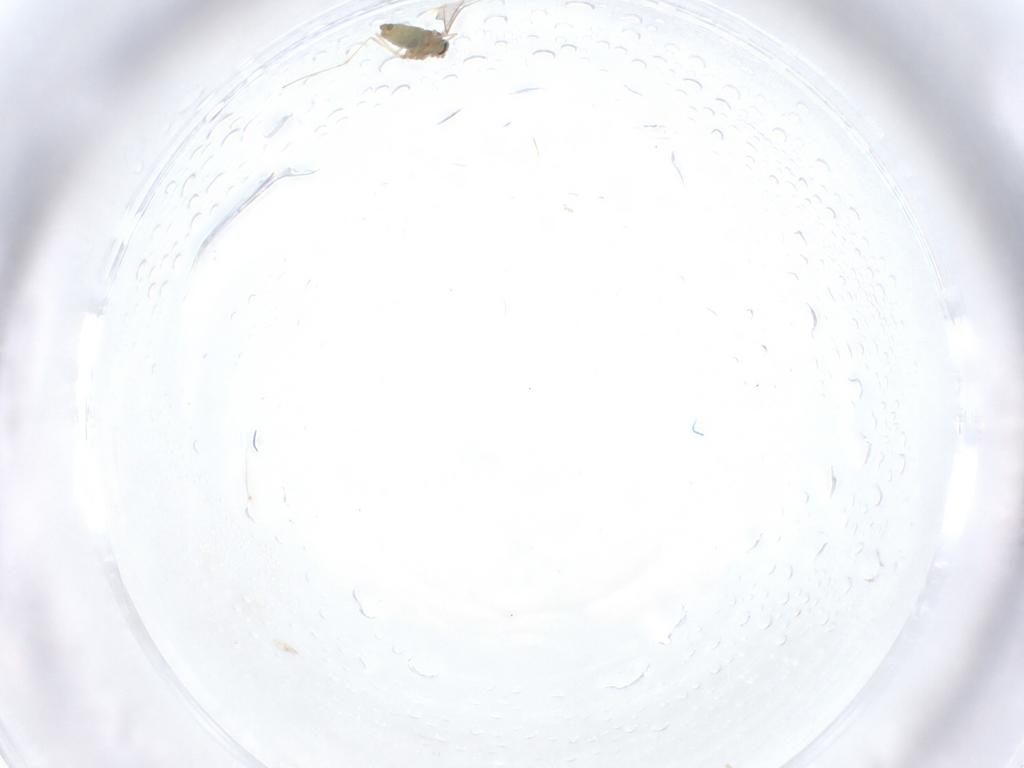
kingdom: Animalia
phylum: Arthropoda
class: Insecta
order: Diptera
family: Cecidomyiidae
